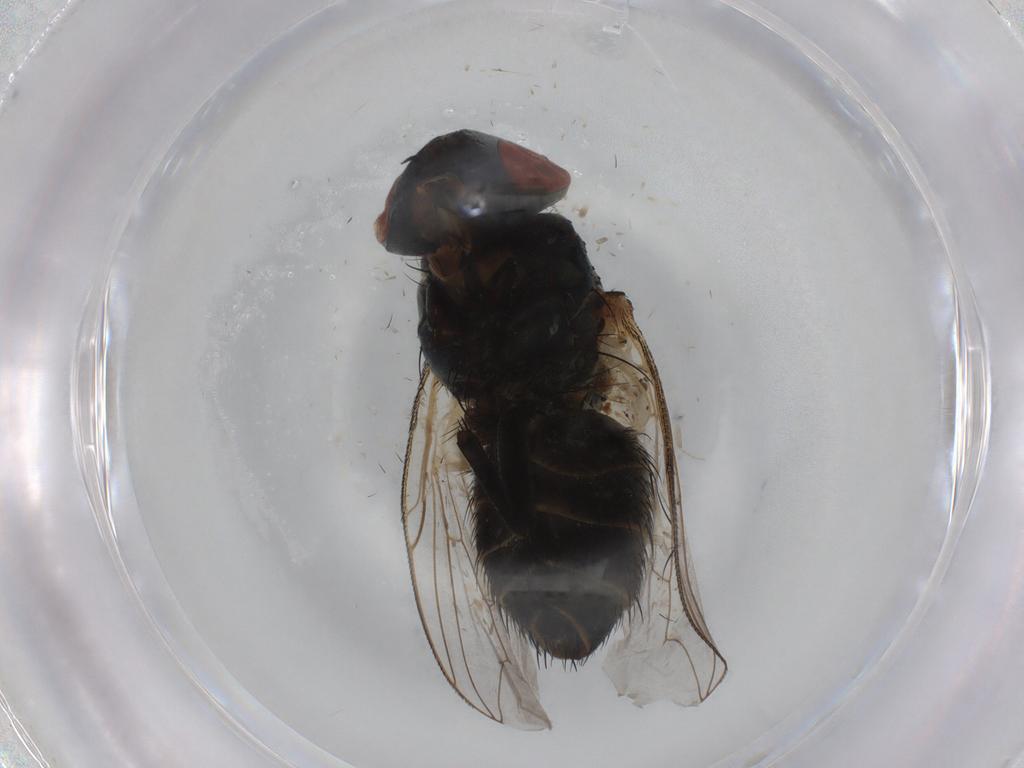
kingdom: Animalia
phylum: Arthropoda
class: Insecta
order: Diptera
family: Sarcophagidae
